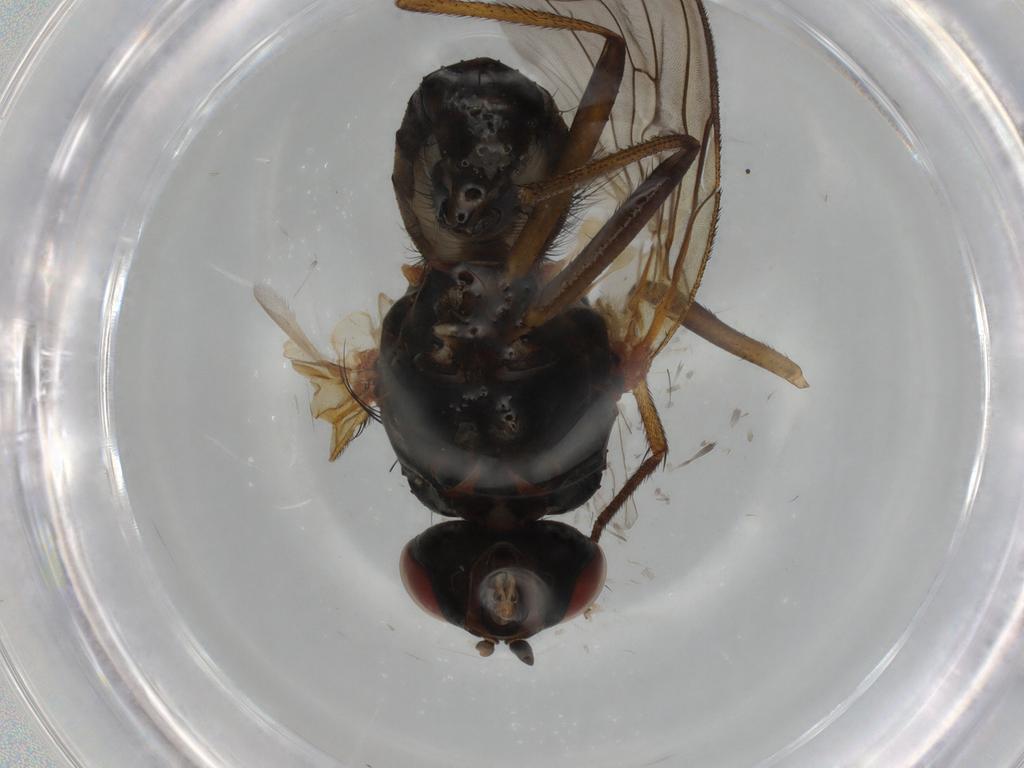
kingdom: Animalia
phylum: Arthropoda
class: Insecta
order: Diptera
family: Anthomyiidae
